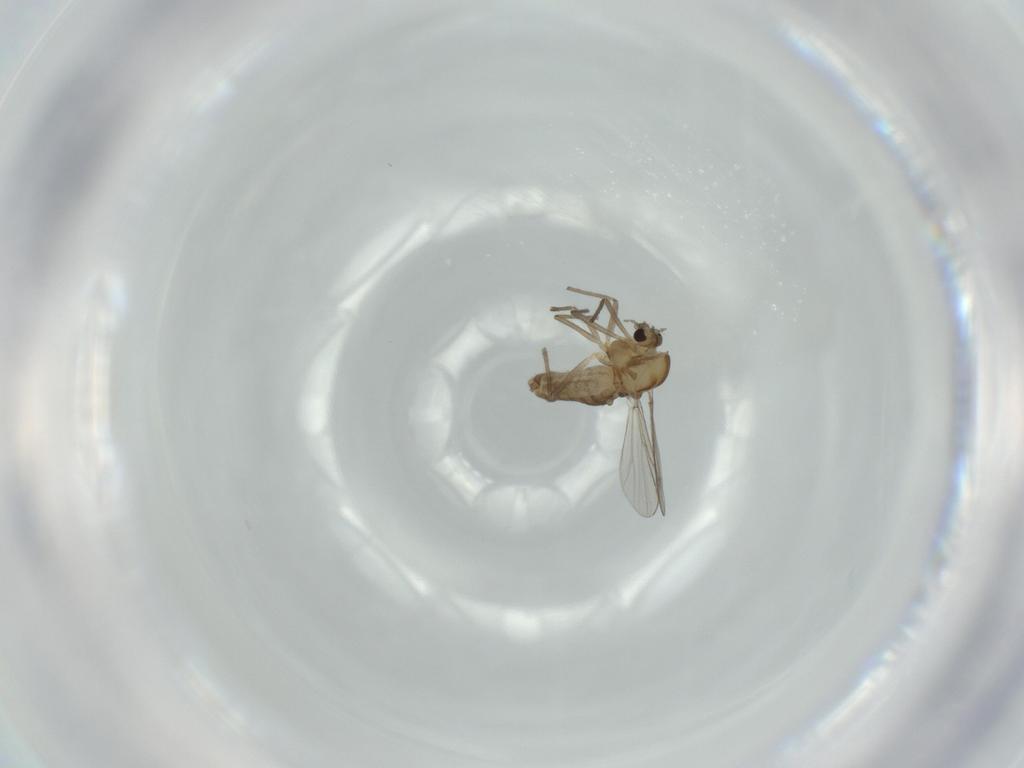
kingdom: Animalia
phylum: Arthropoda
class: Insecta
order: Diptera
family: Chironomidae
